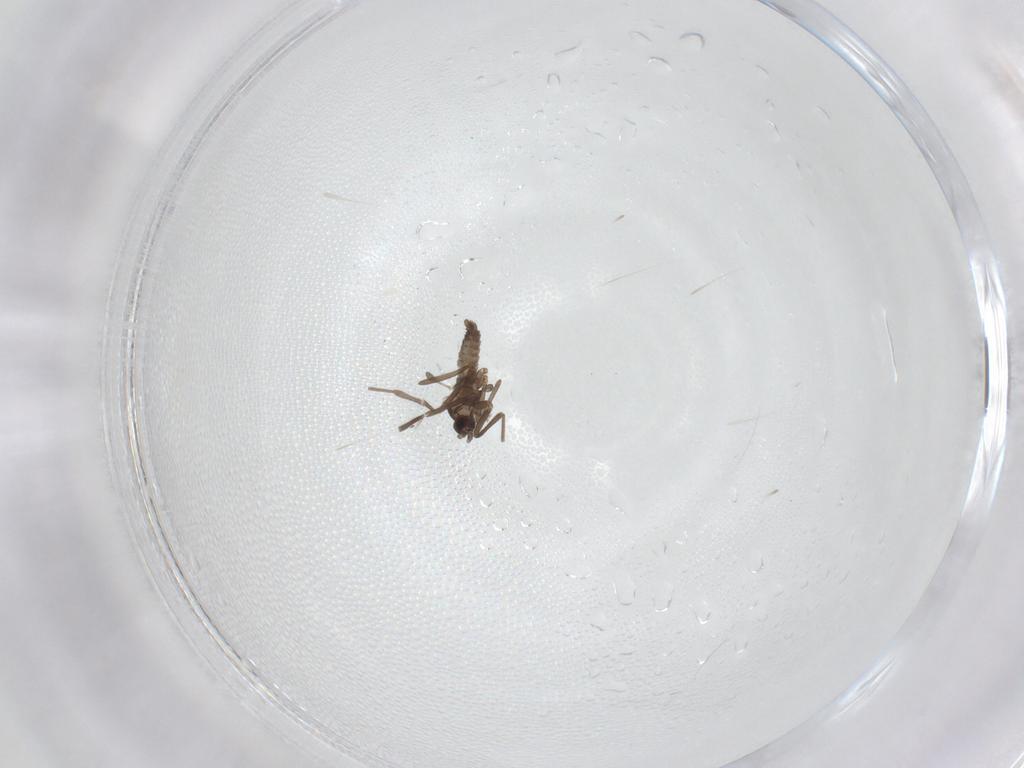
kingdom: Animalia
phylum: Arthropoda
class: Insecta
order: Diptera
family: Cecidomyiidae
